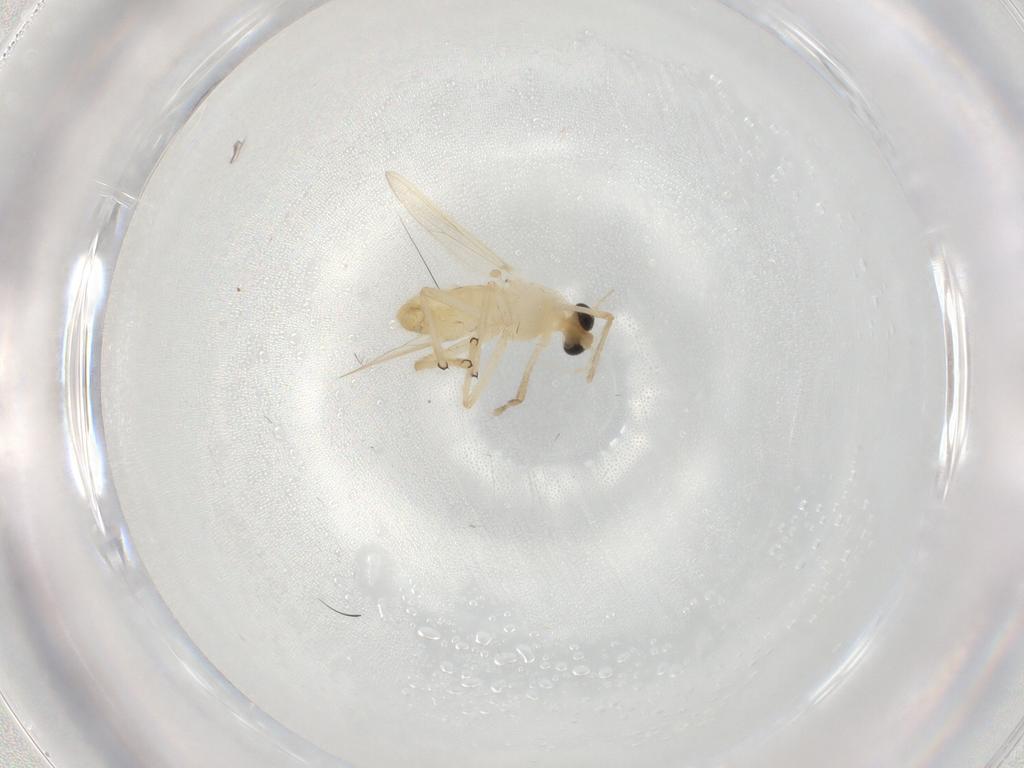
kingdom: Animalia
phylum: Arthropoda
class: Insecta
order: Diptera
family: Chironomidae
